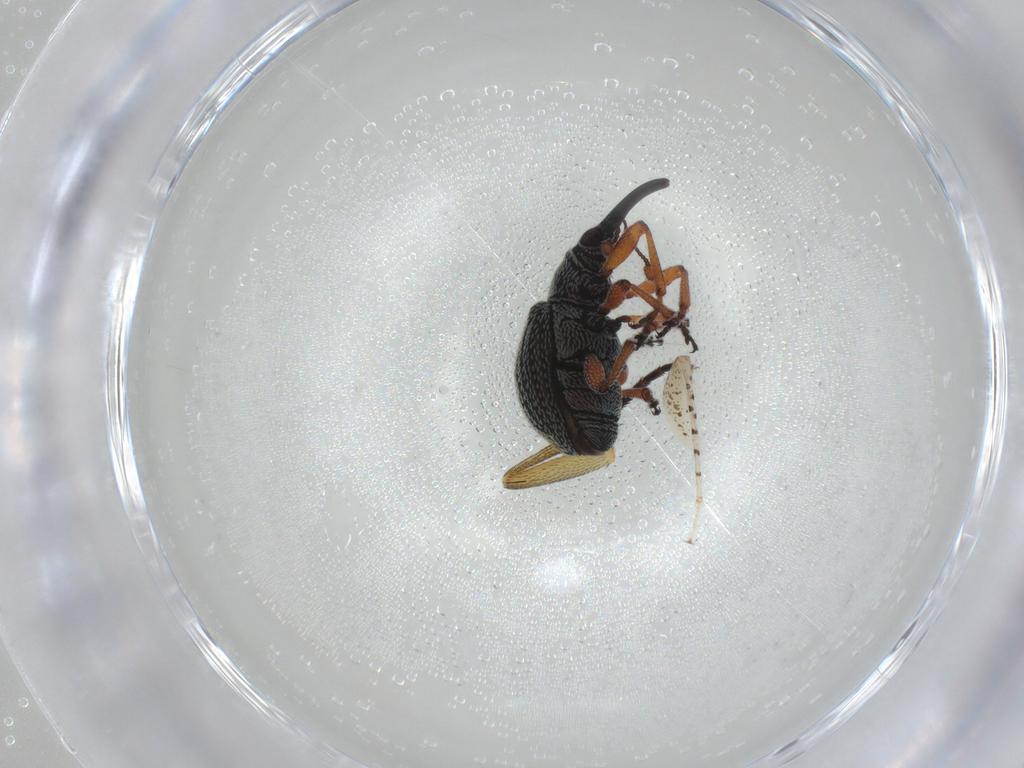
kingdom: Animalia
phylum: Arthropoda
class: Insecta
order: Coleoptera
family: Brentidae
